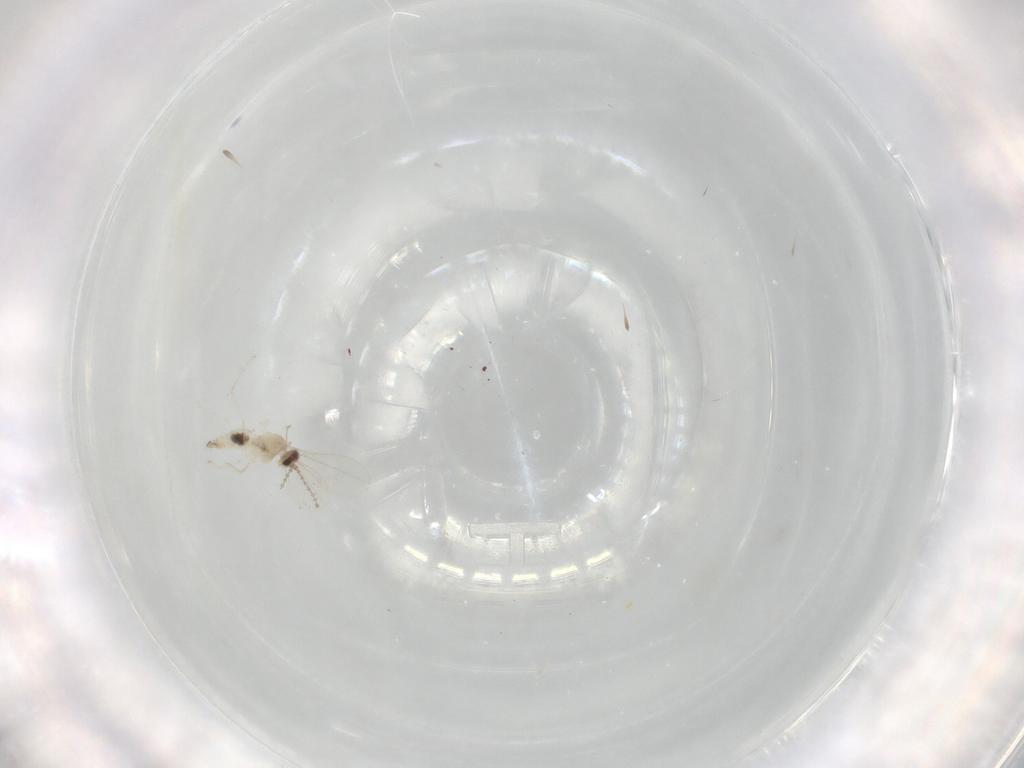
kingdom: Animalia
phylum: Arthropoda
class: Insecta
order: Diptera
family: Cecidomyiidae
